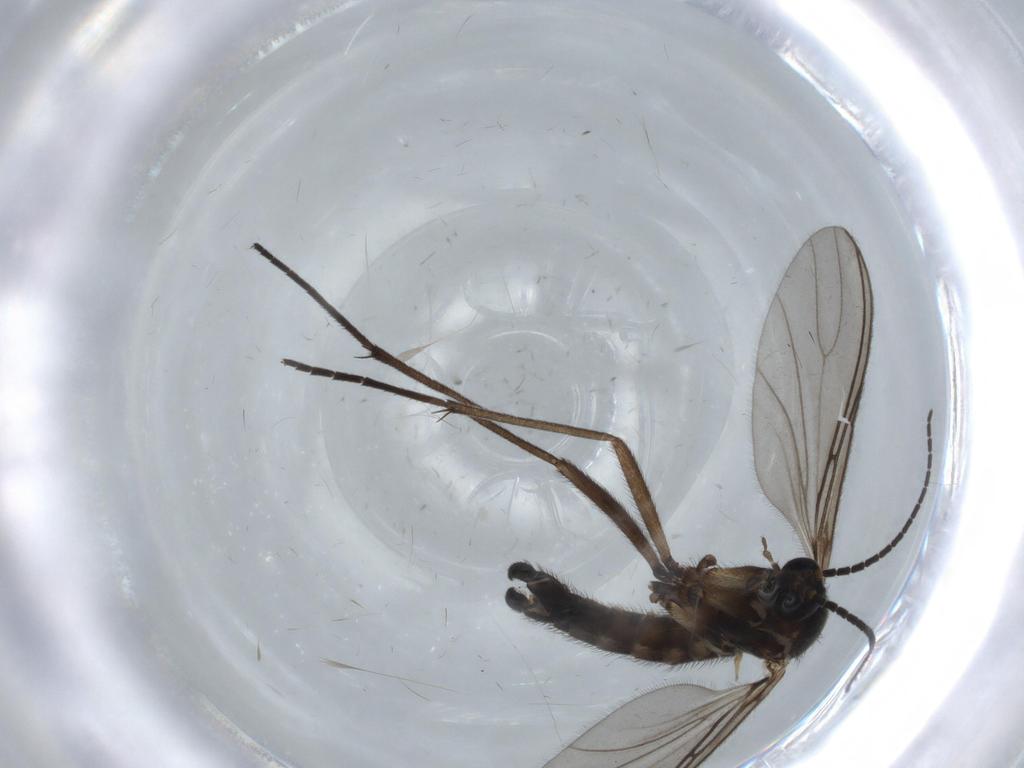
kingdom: Animalia
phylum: Arthropoda
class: Insecta
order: Diptera
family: Sciaridae
